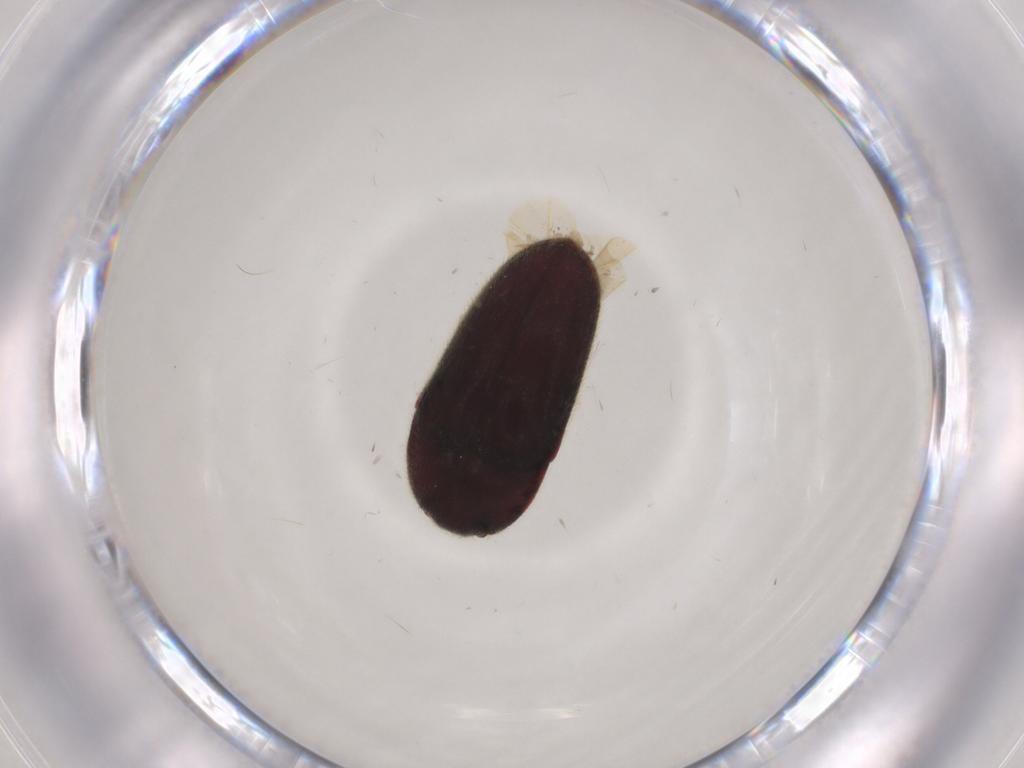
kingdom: Animalia
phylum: Arthropoda
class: Insecta
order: Coleoptera
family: Throscidae
